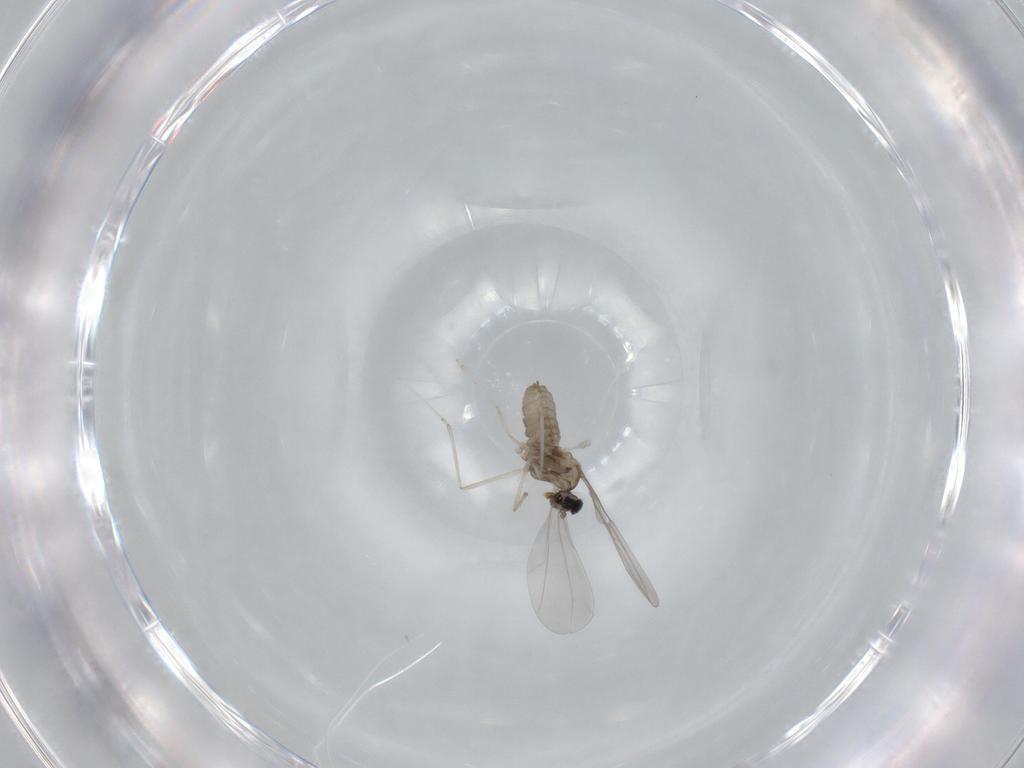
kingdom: Animalia
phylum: Arthropoda
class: Insecta
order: Diptera
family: Cecidomyiidae
